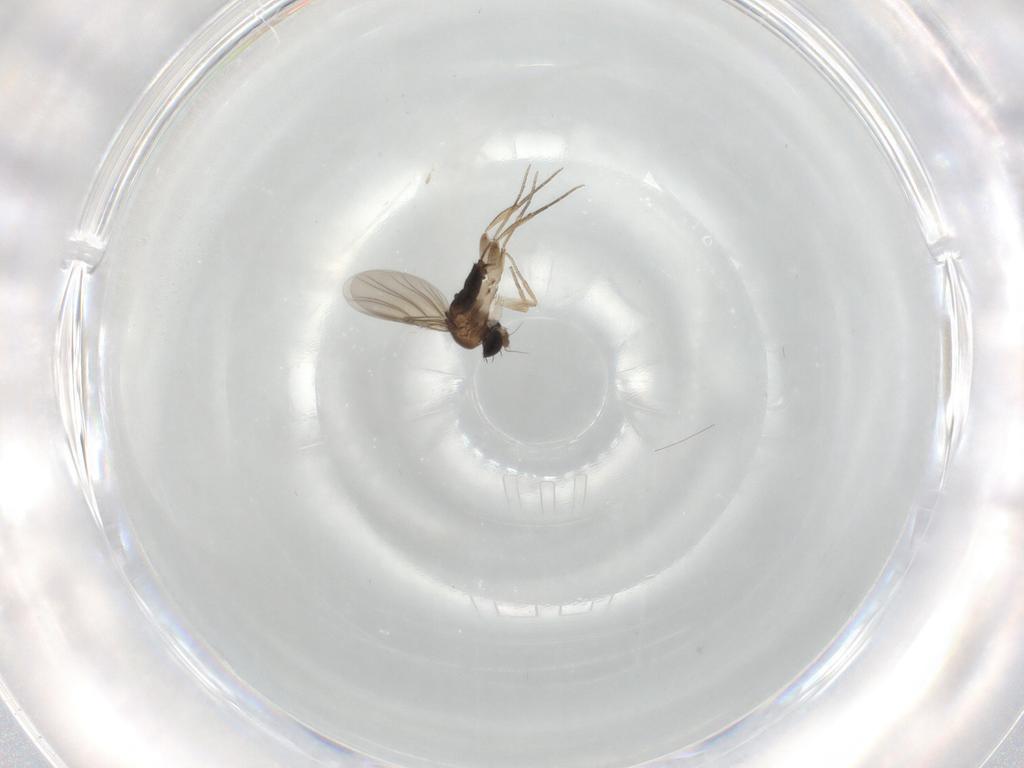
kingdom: Animalia
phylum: Arthropoda
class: Insecta
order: Diptera
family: Phoridae
